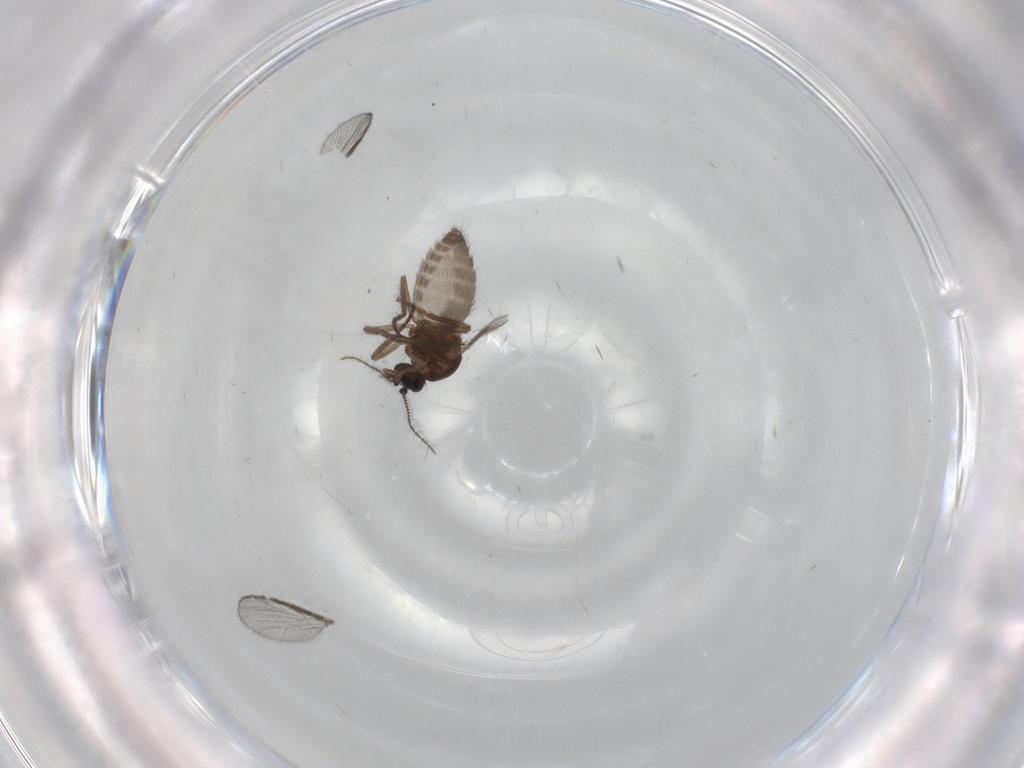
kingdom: Animalia
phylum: Arthropoda
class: Insecta
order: Diptera
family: Ceratopogonidae
